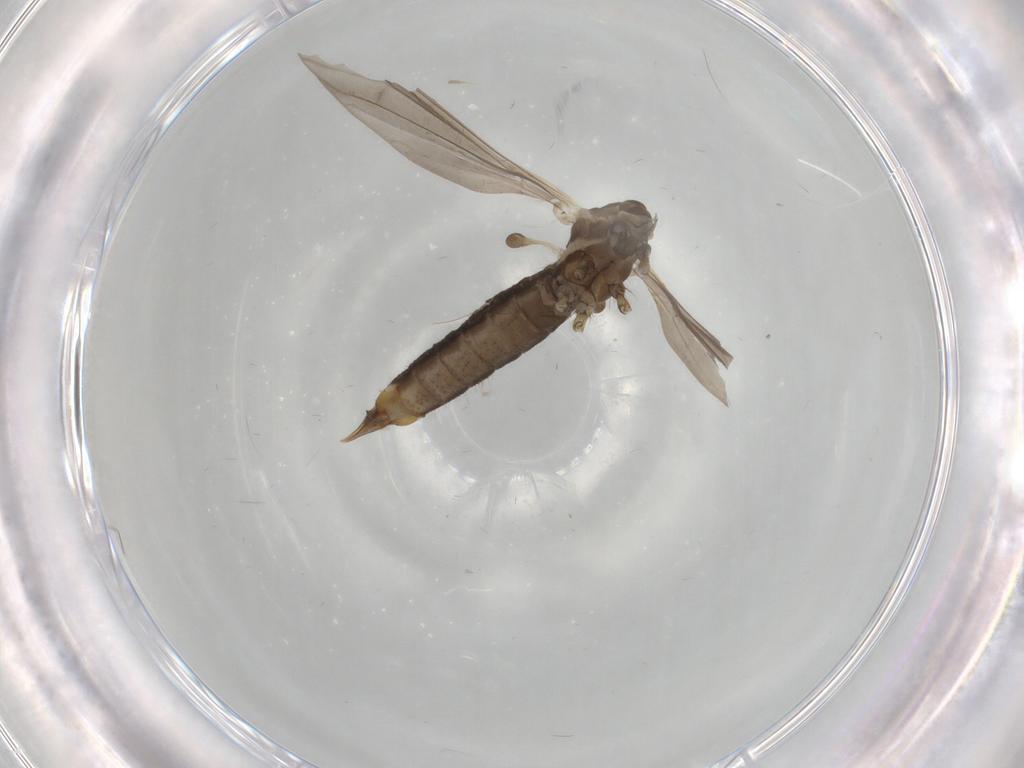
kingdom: Animalia
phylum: Arthropoda
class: Insecta
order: Diptera
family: Limoniidae
